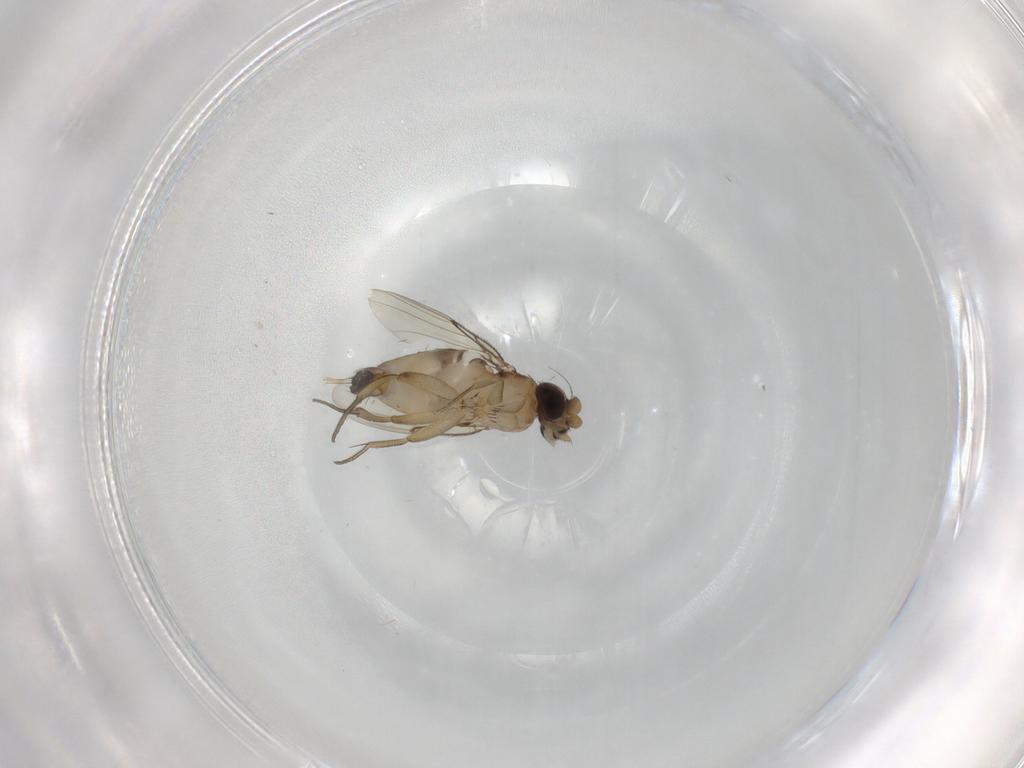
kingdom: Animalia
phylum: Arthropoda
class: Insecta
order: Diptera
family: Phoridae
